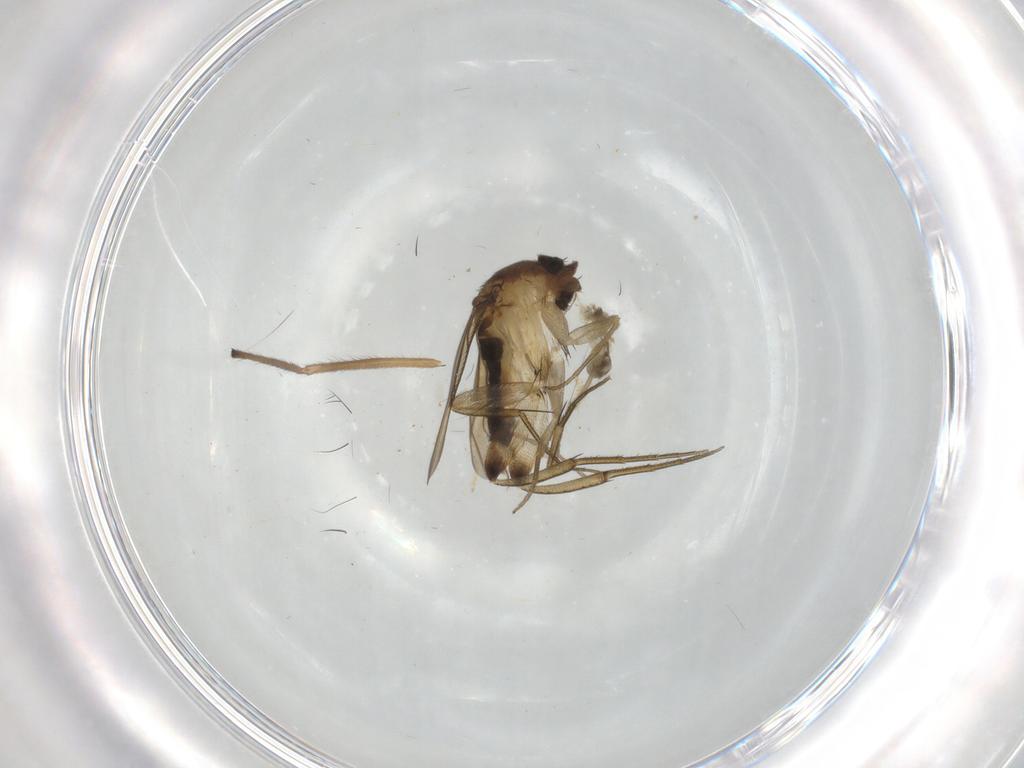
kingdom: Animalia
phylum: Arthropoda
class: Insecta
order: Diptera
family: Phoridae
